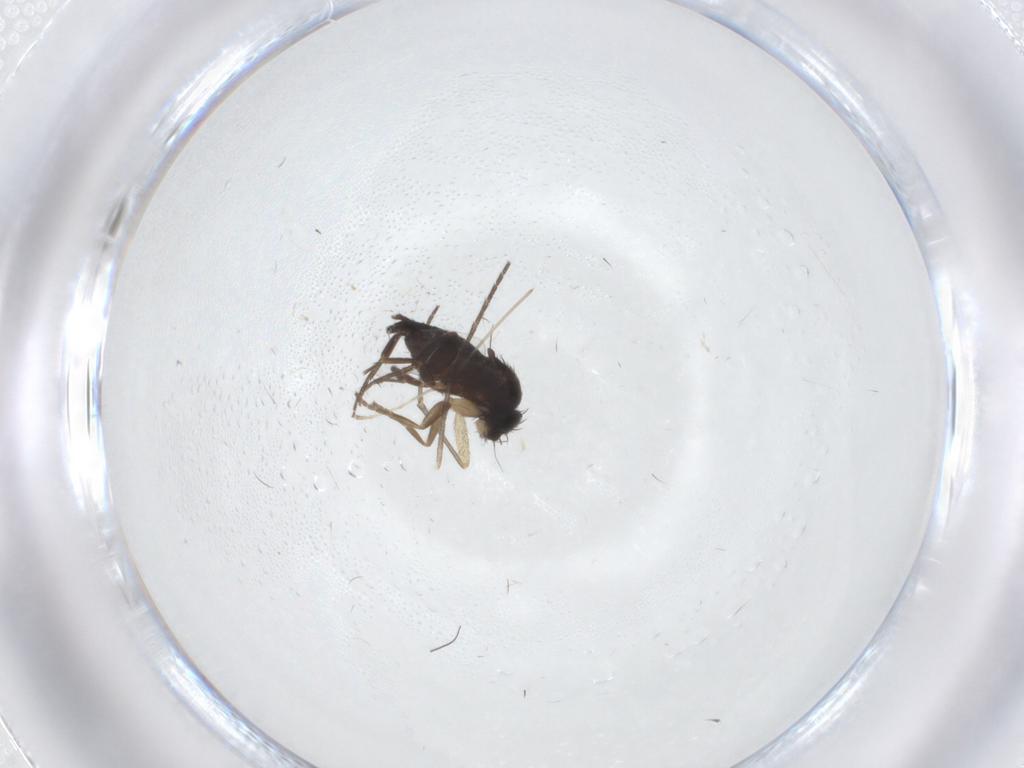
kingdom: Animalia
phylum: Arthropoda
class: Insecta
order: Diptera
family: Phoridae
